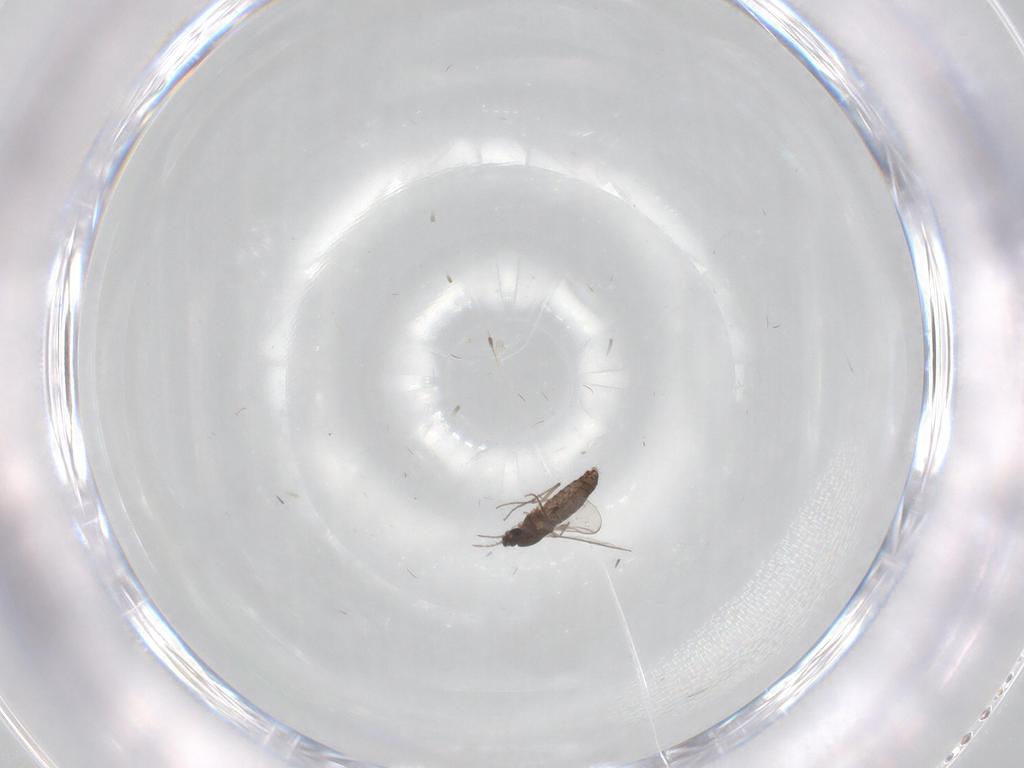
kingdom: Animalia
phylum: Arthropoda
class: Insecta
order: Diptera
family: Chironomidae
